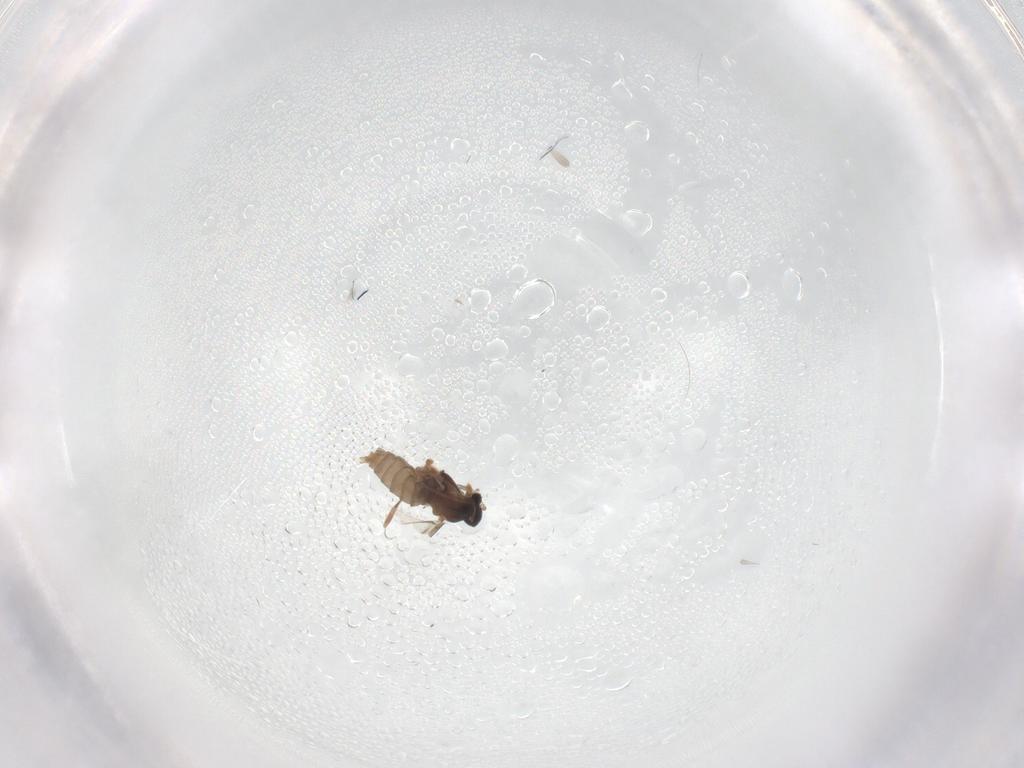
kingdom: Animalia
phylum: Arthropoda
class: Insecta
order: Diptera
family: Cecidomyiidae
